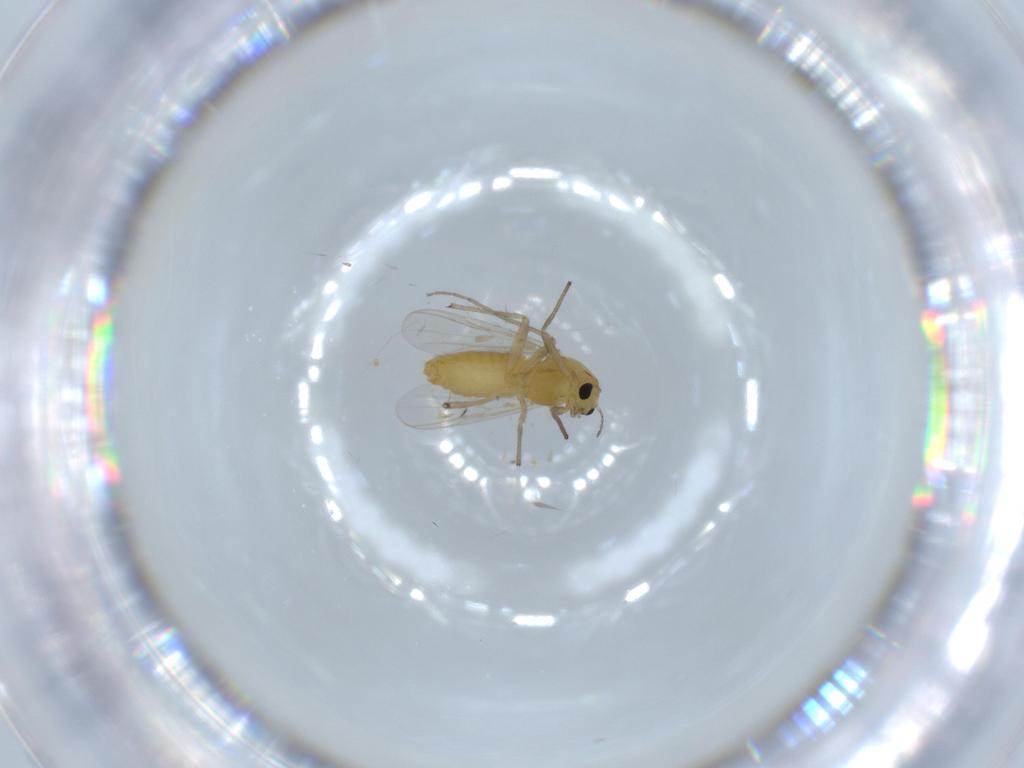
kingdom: Animalia
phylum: Arthropoda
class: Insecta
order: Diptera
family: Chironomidae
